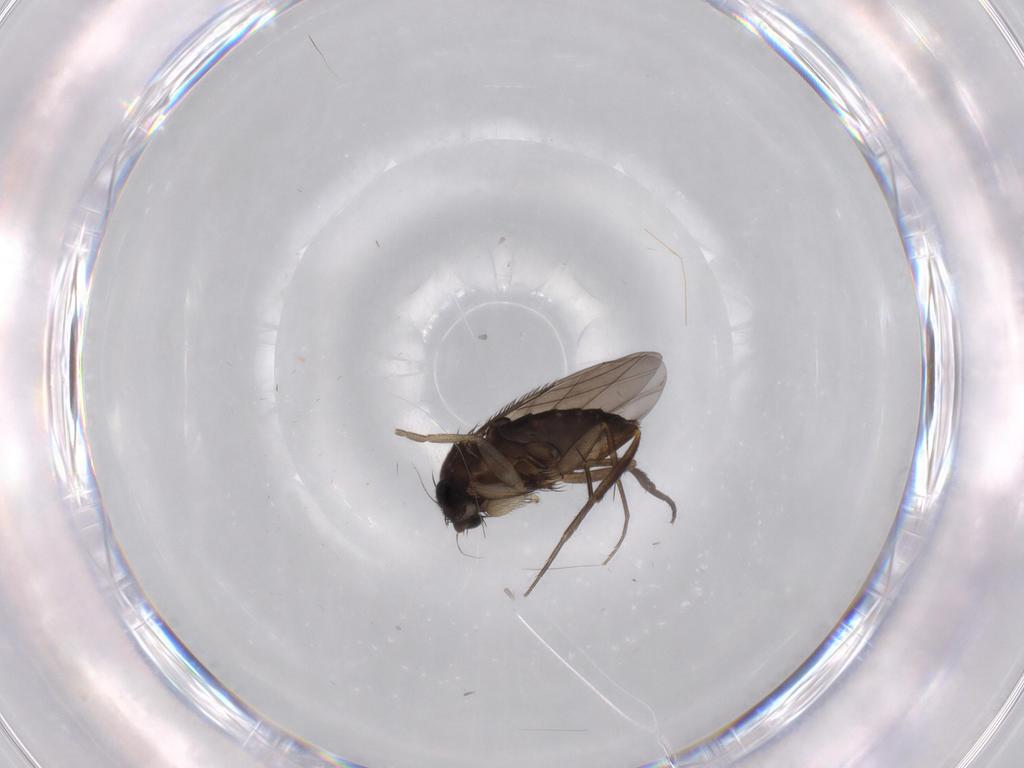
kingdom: Animalia
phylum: Arthropoda
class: Insecta
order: Diptera
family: Phoridae
